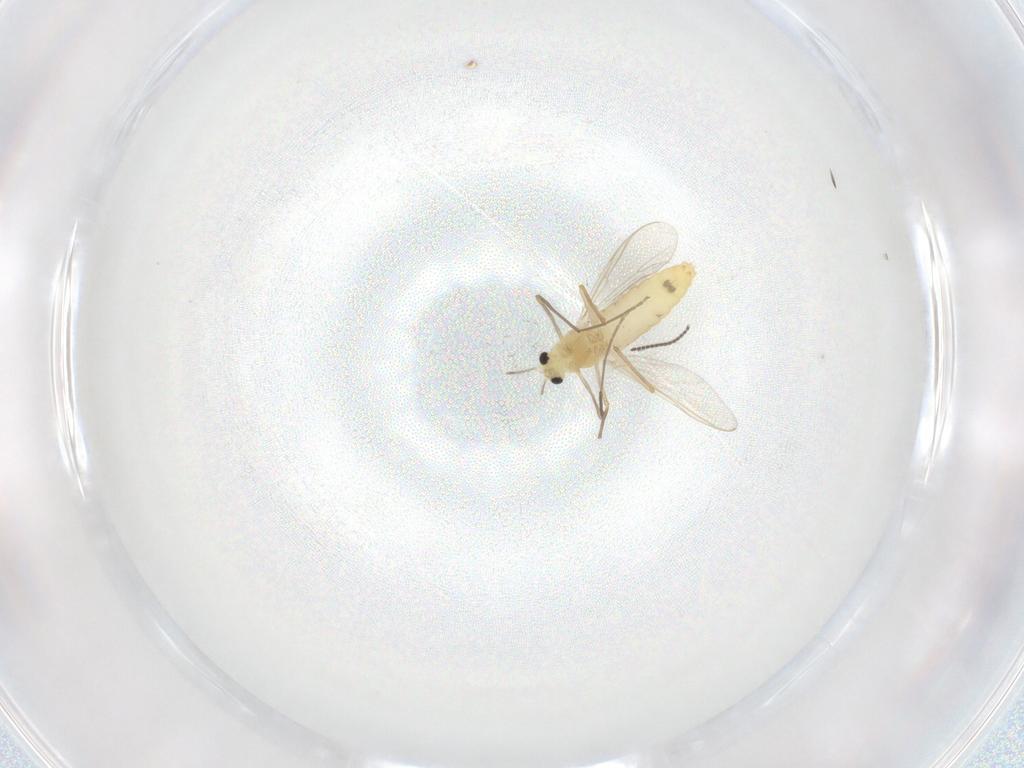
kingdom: Animalia
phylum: Arthropoda
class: Insecta
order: Diptera
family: Chironomidae
